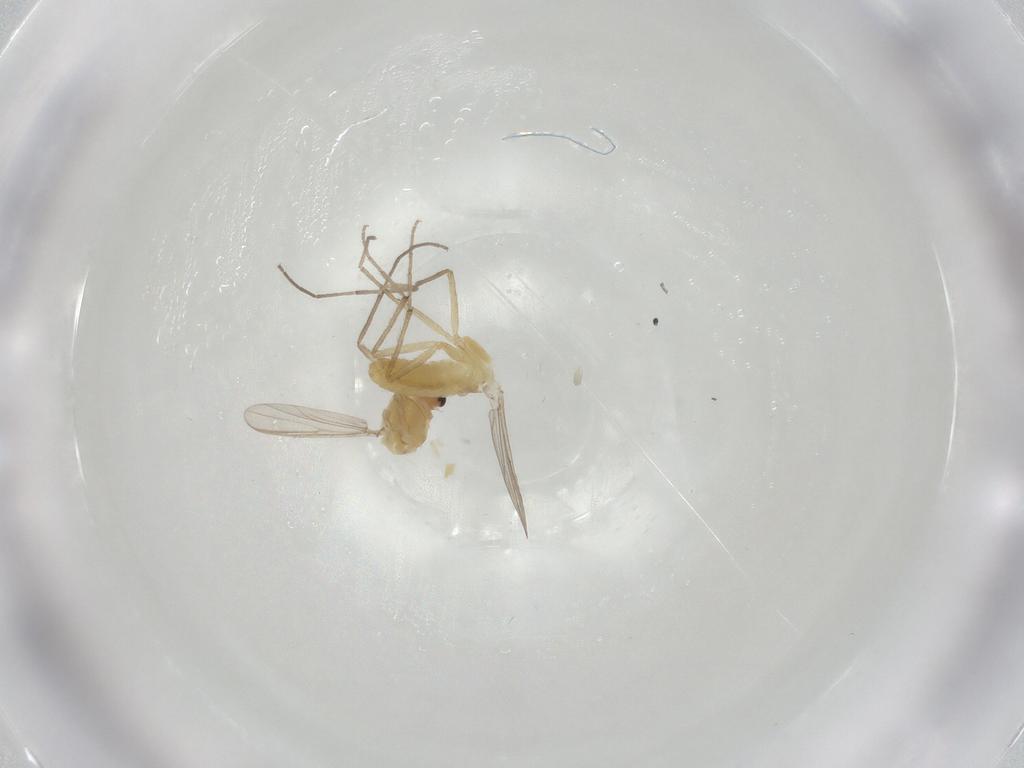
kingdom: Animalia
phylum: Arthropoda
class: Insecta
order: Diptera
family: Chironomidae
